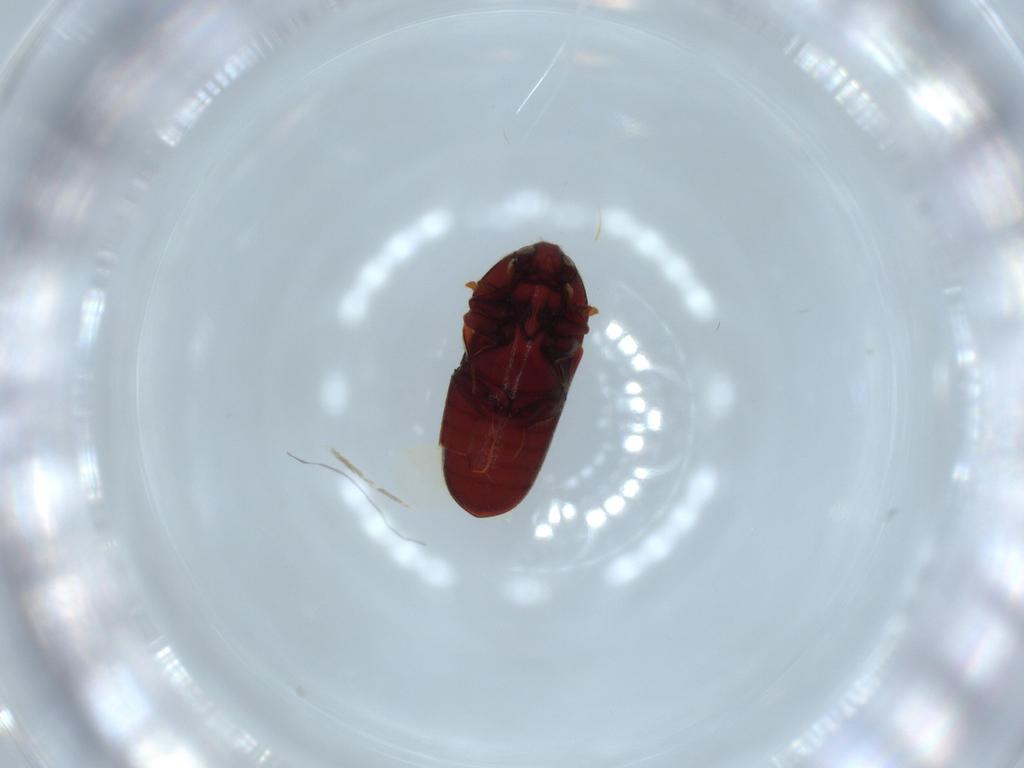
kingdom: Animalia
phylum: Arthropoda
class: Insecta
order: Coleoptera
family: Throscidae
